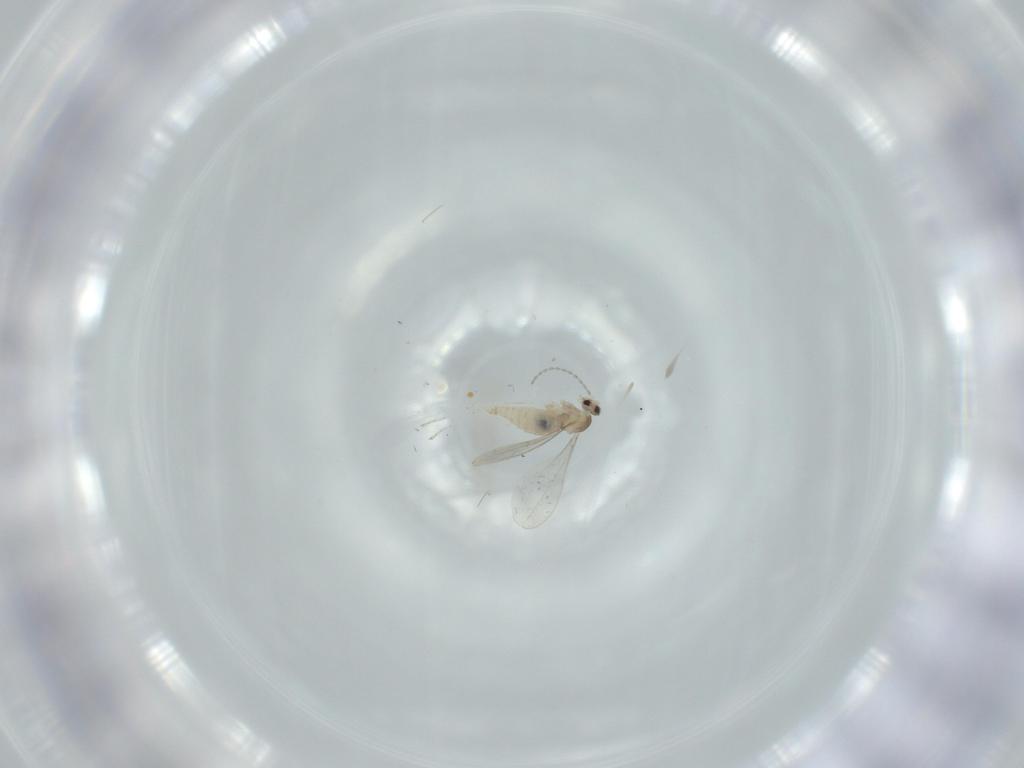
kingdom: Animalia
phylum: Arthropoda
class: Insecta
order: Diptera
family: Cecidomyiidae
